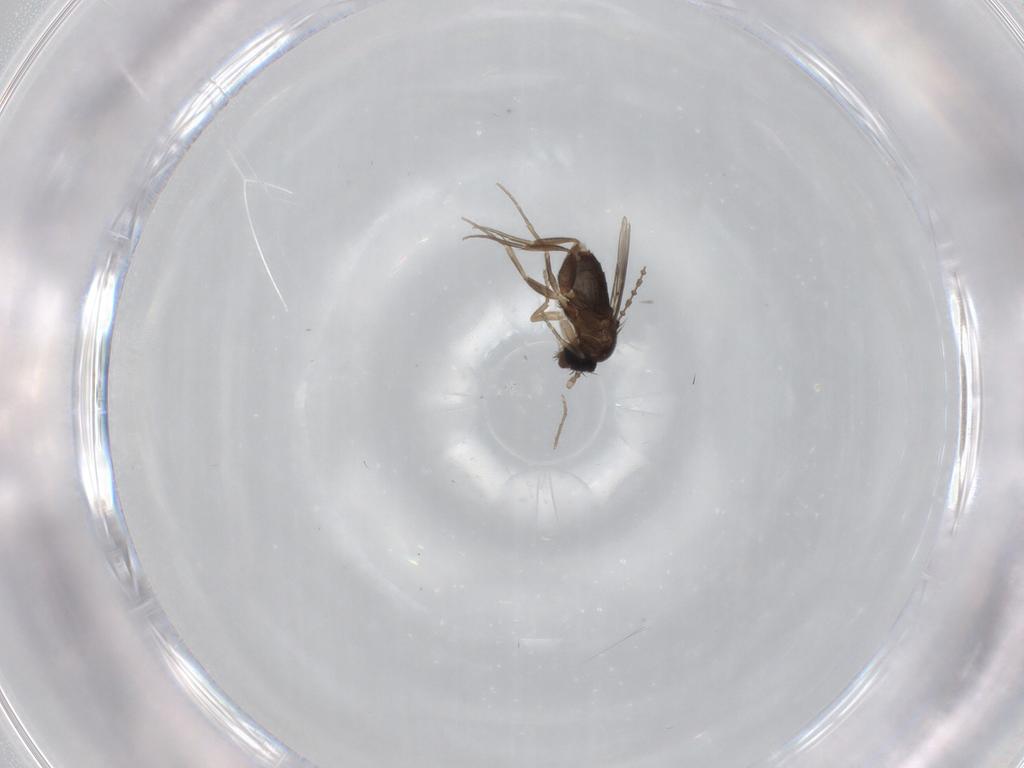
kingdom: Animalia
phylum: Arthropoda
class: Insecta
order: Diptera
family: Phoridae
